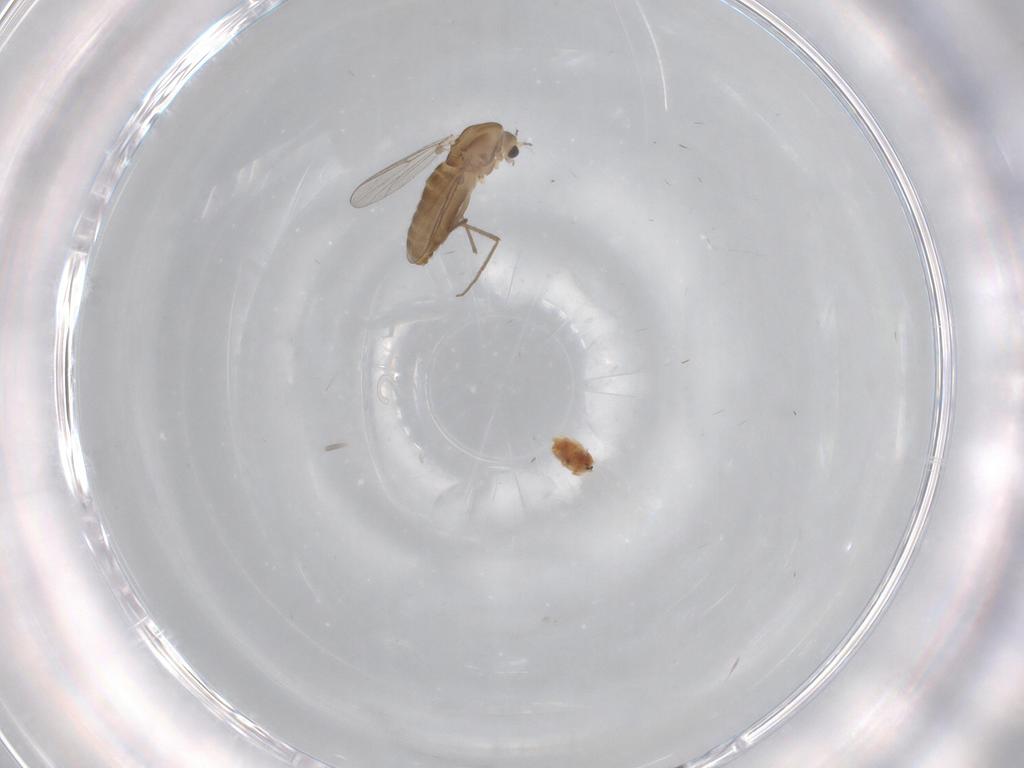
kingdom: Animalia
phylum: Arthropoda
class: Insecta
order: Diptera
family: Chironomidae
